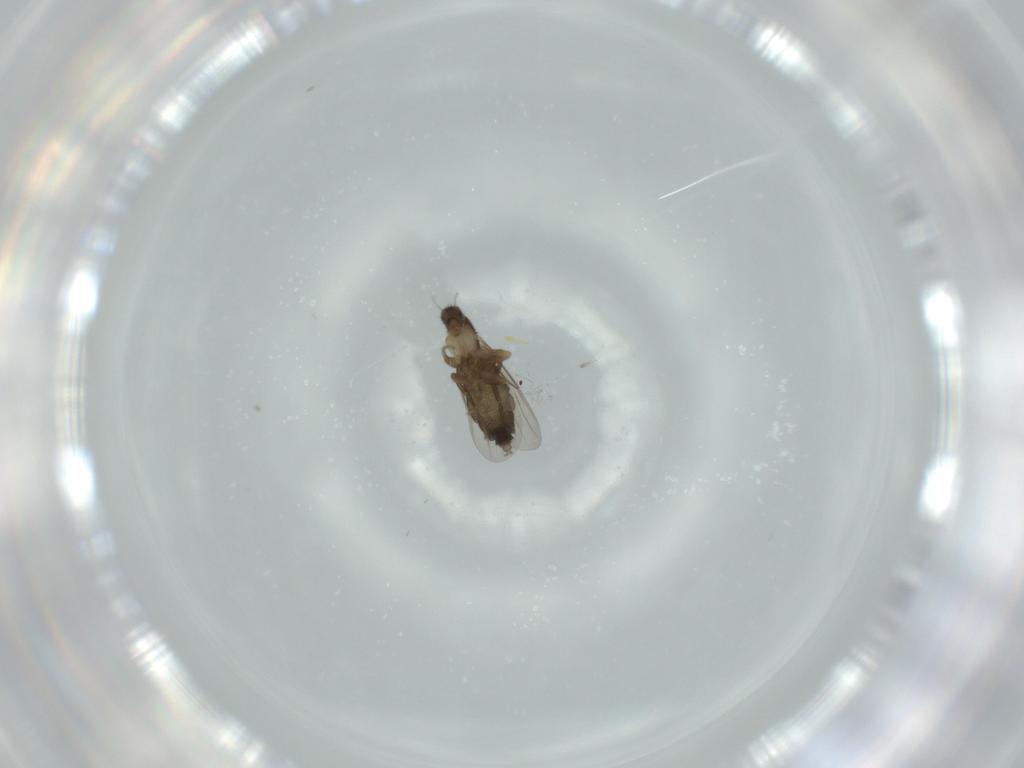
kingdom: Animalia
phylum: Arthropoda
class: Insecta
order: Diptera
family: Phoridae
